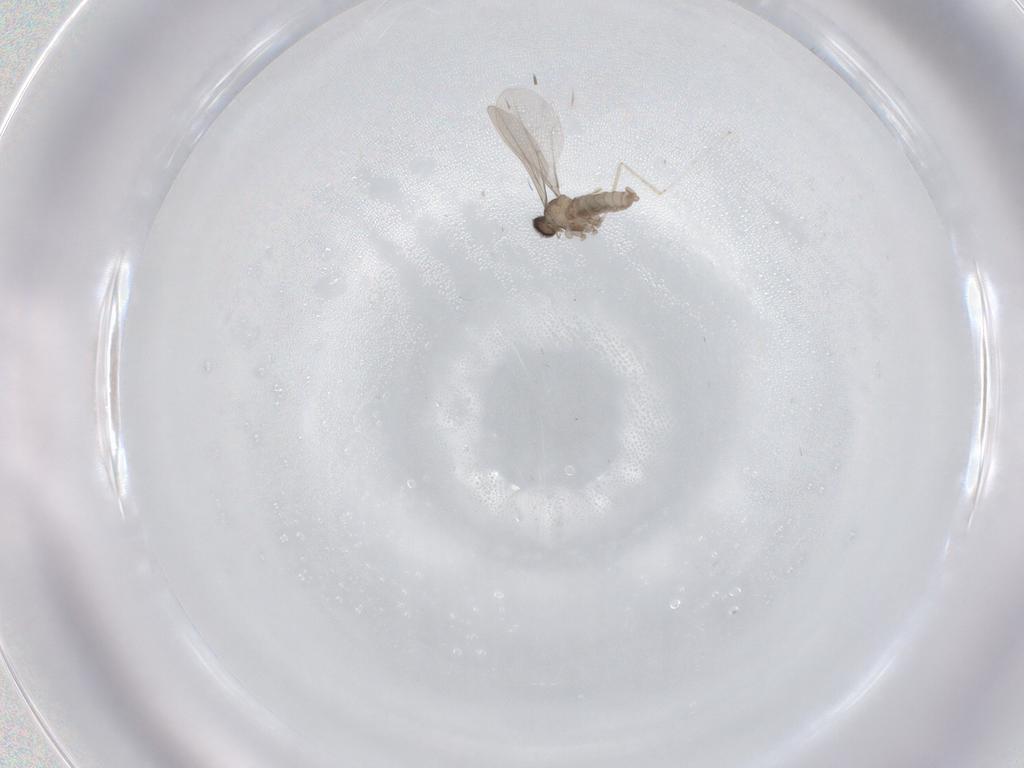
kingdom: Animalia
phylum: Arthropoda
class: Insecta
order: Diptera
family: Cecidomyiidae
